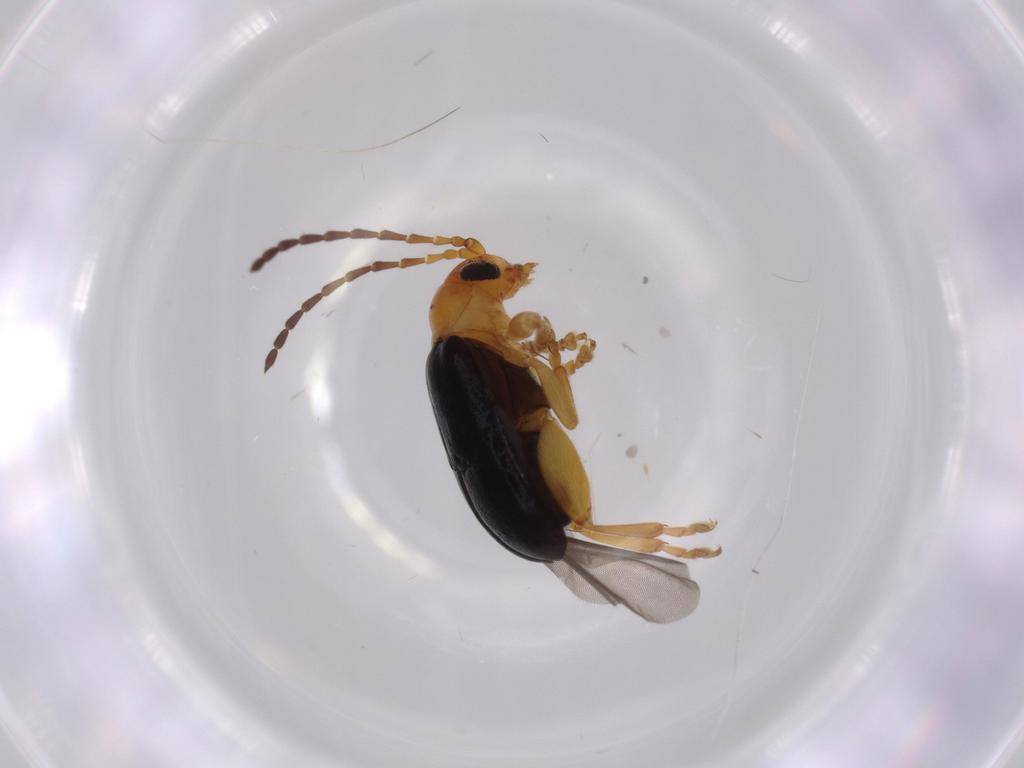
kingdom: Animalia
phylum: Arthropoda
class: Insecta
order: Coleoptera
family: Chrysomelidae
